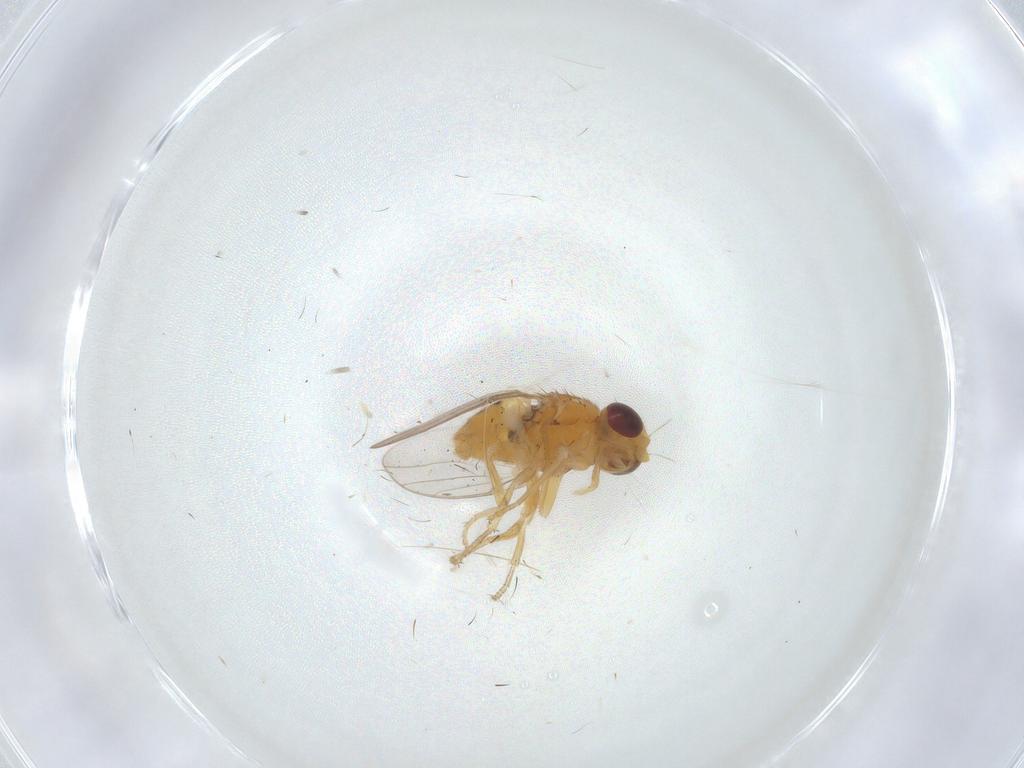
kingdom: Animalia
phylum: Arthropoda
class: Insecta
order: Diptera
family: Chloropidae
